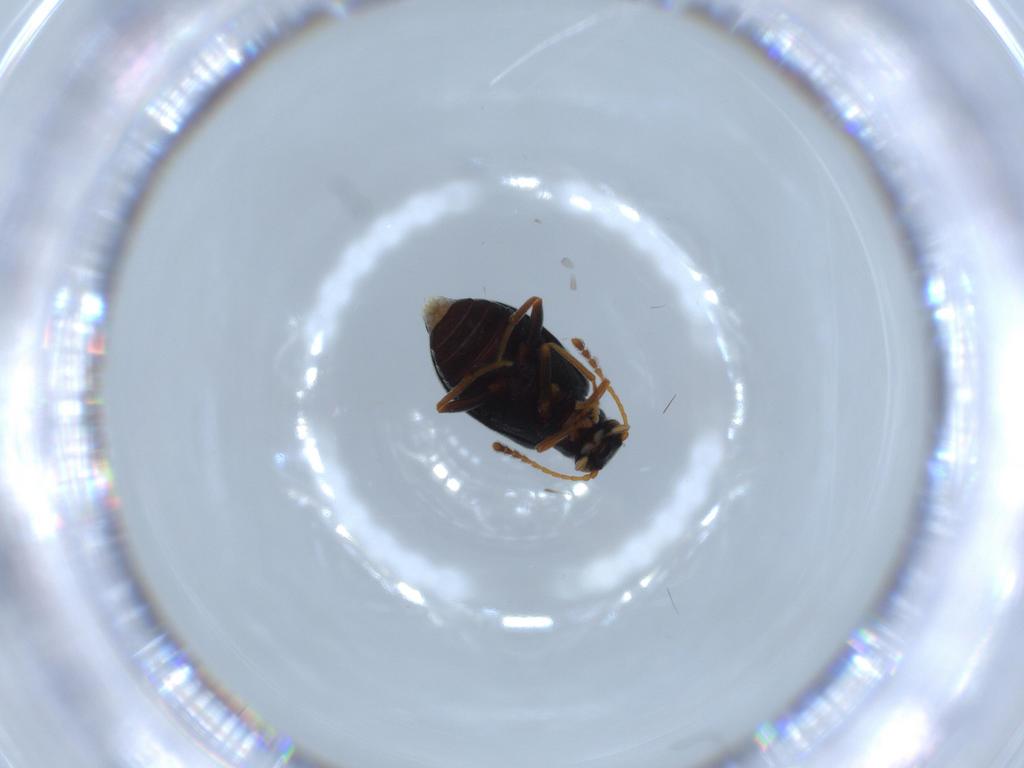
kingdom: Animalia
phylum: Arthropoda
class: Insecta
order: Coleoptera
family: Aderidae
